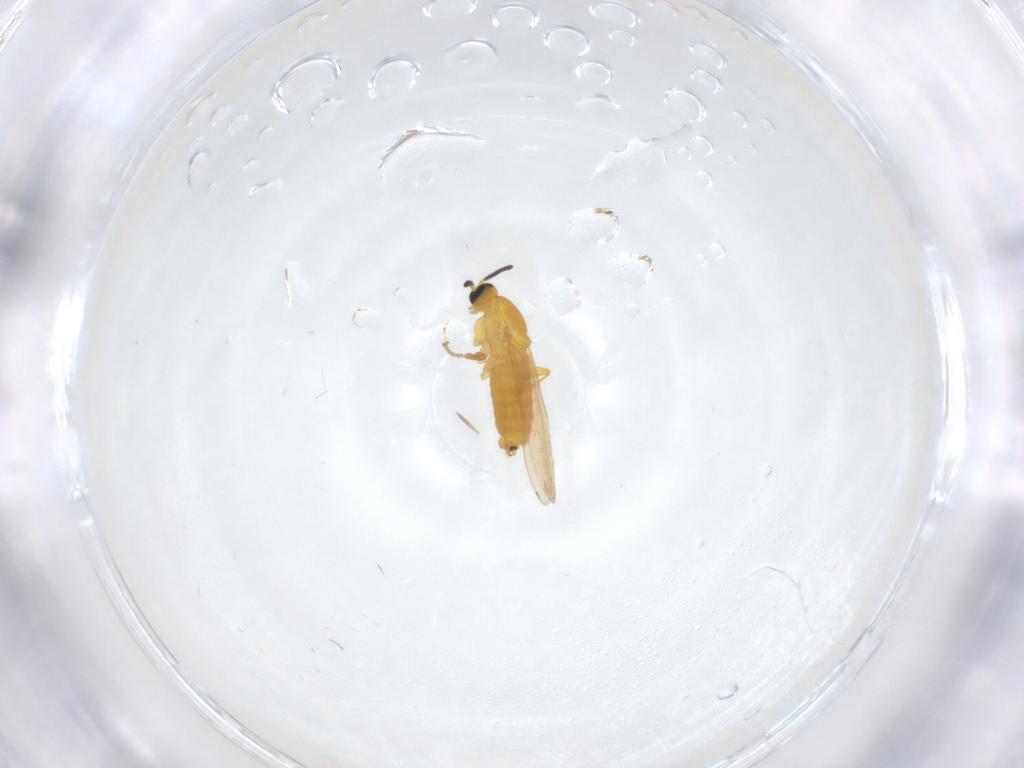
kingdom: Animalia
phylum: Arthropoda
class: Insecta
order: Diptera
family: Scatopsidae
